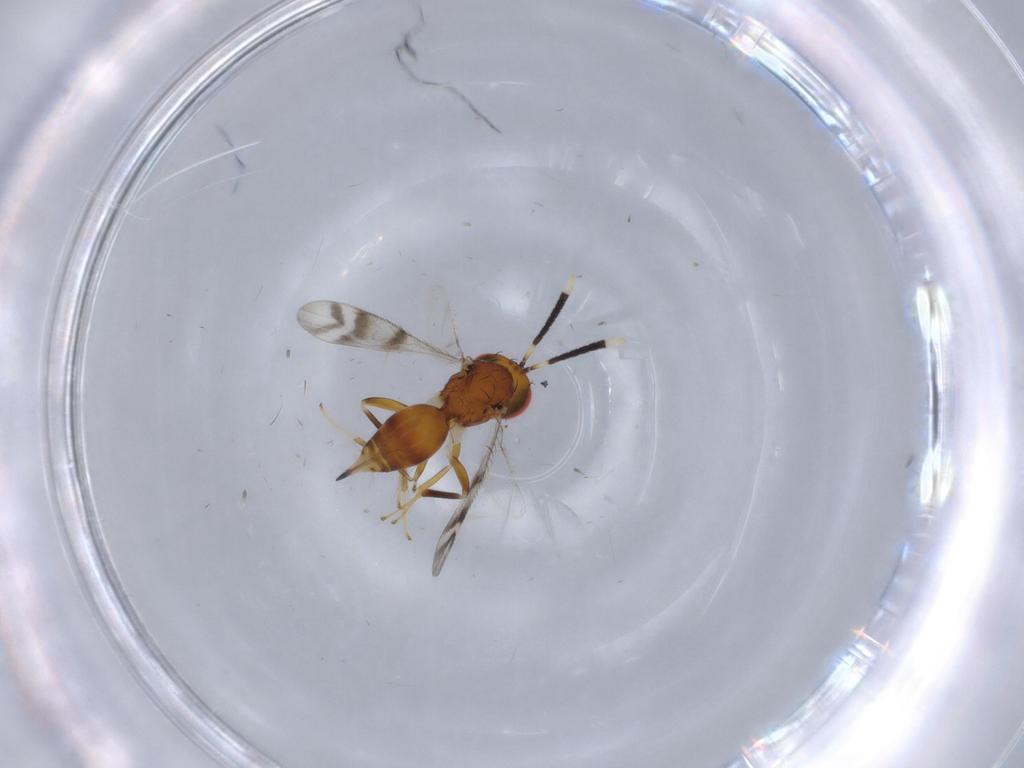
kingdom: Animalia
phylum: Arthropoda
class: Insecta
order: Hymenoptera
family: Diparidae
